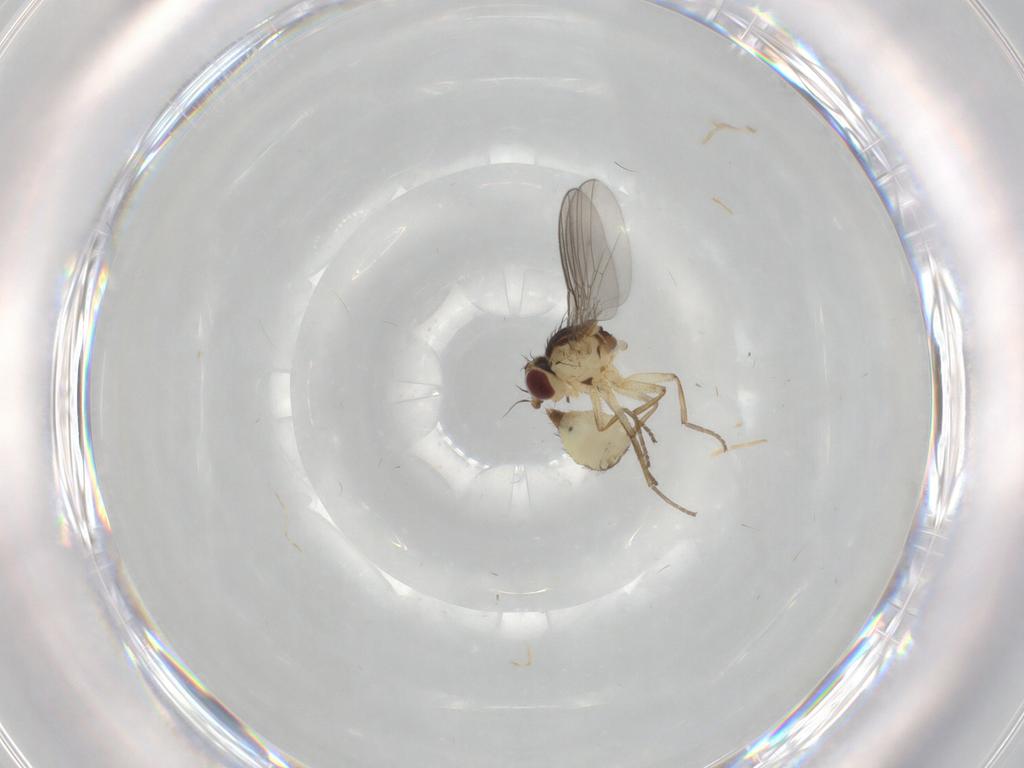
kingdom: Animalia
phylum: Arthropoda
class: Insecta
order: Diptera
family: Agromyzidae
